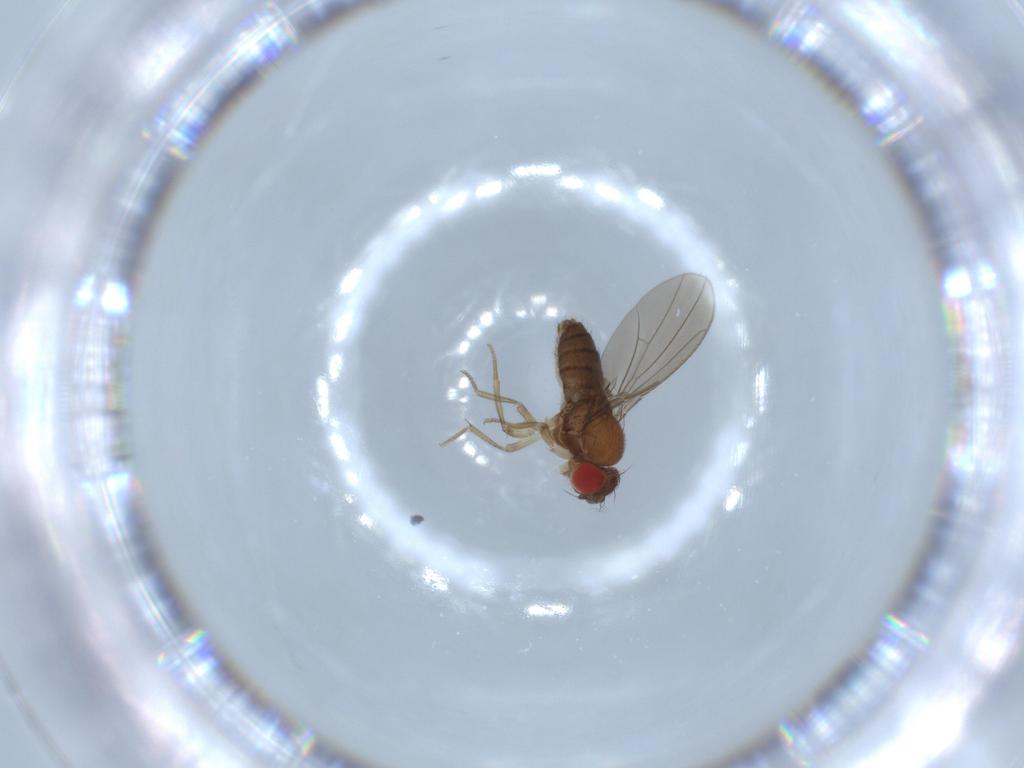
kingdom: Animalia
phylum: Arthropoda
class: Insecta
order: Diptera
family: Drosophilidae
